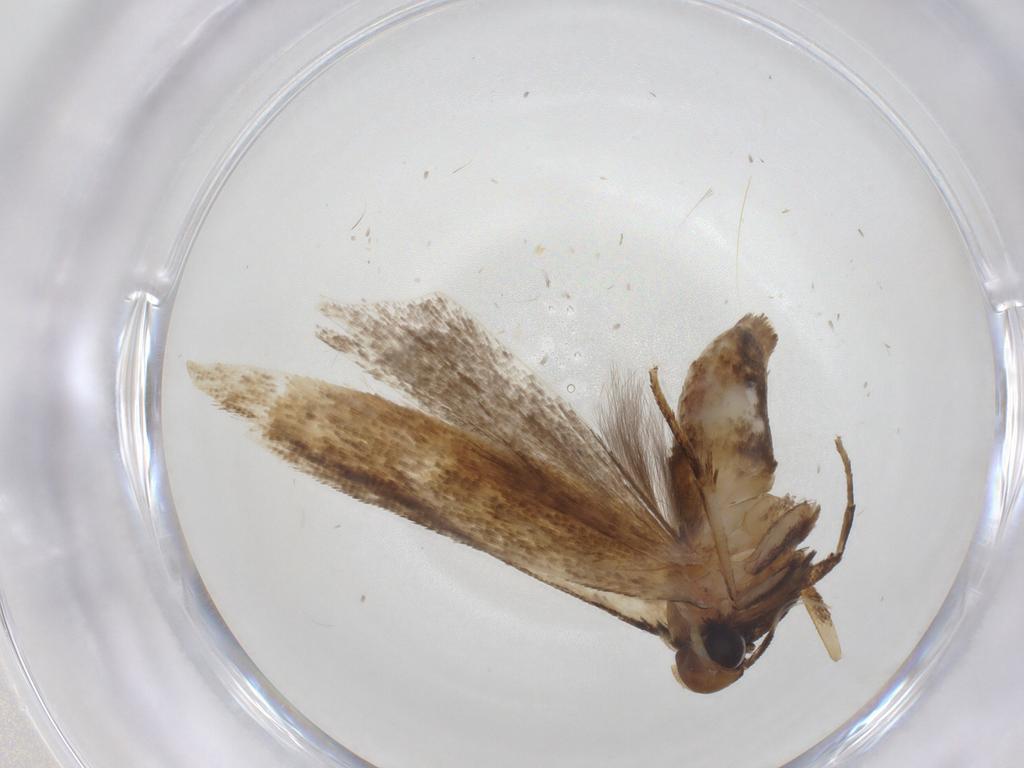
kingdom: Animalia
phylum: Arthropoda
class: Insecta
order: Lepidoptera
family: Gelechiidae
